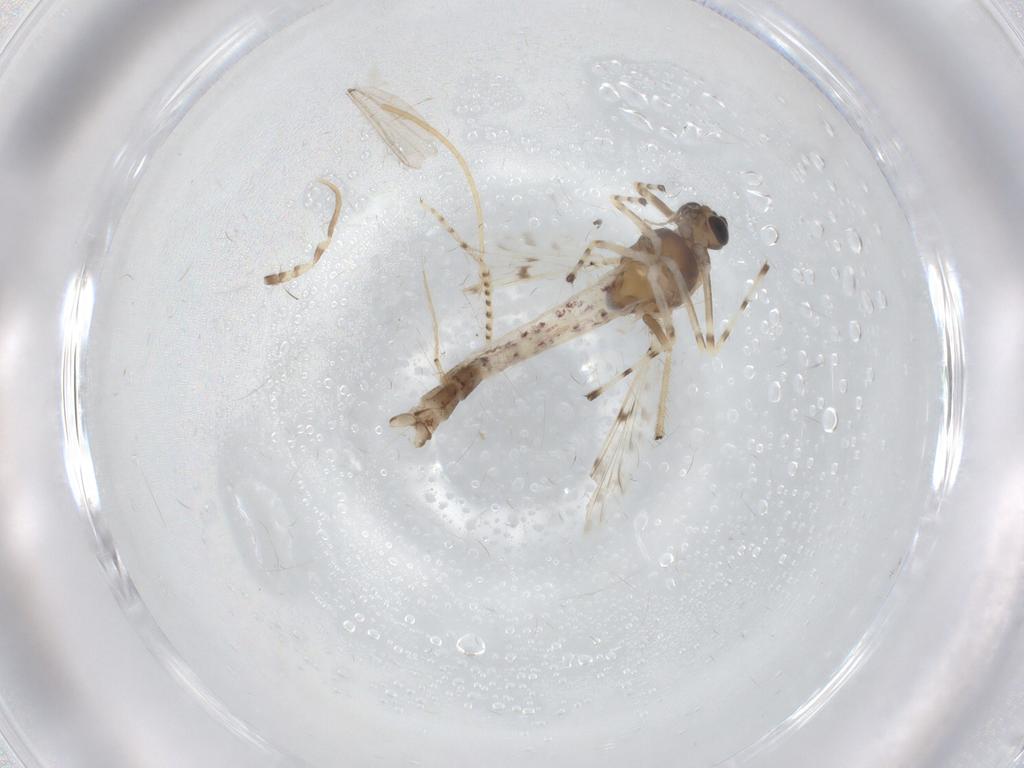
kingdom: Animalia
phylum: Arthropoda
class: Insecta
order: Diptera
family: Chironomidae
